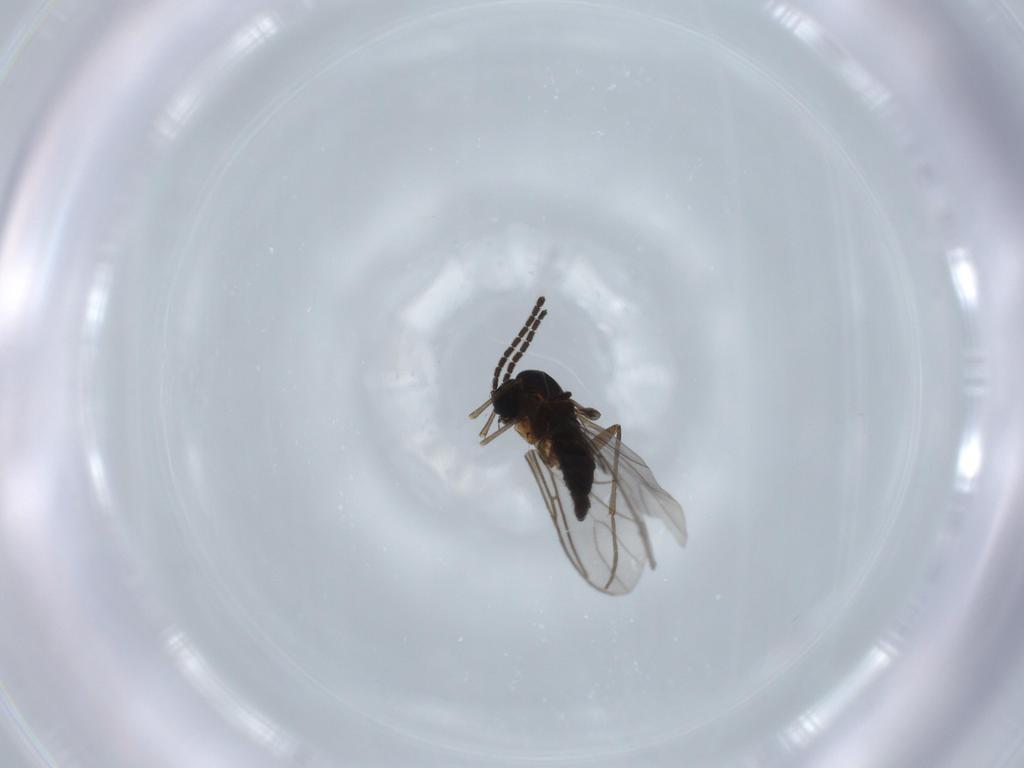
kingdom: Animalia
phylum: Arthropoda
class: Insecta
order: Diptera
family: Sciaridae
